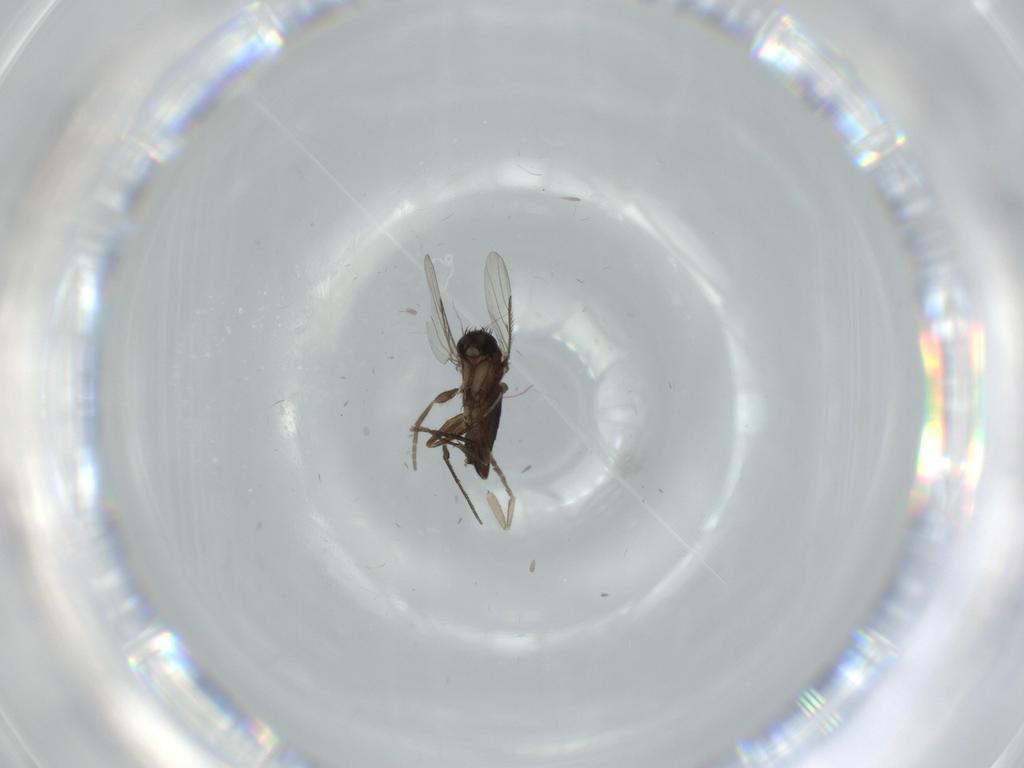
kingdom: Animalia
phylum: Arthropoda
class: Insecta
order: Diptera
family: Phoridae
